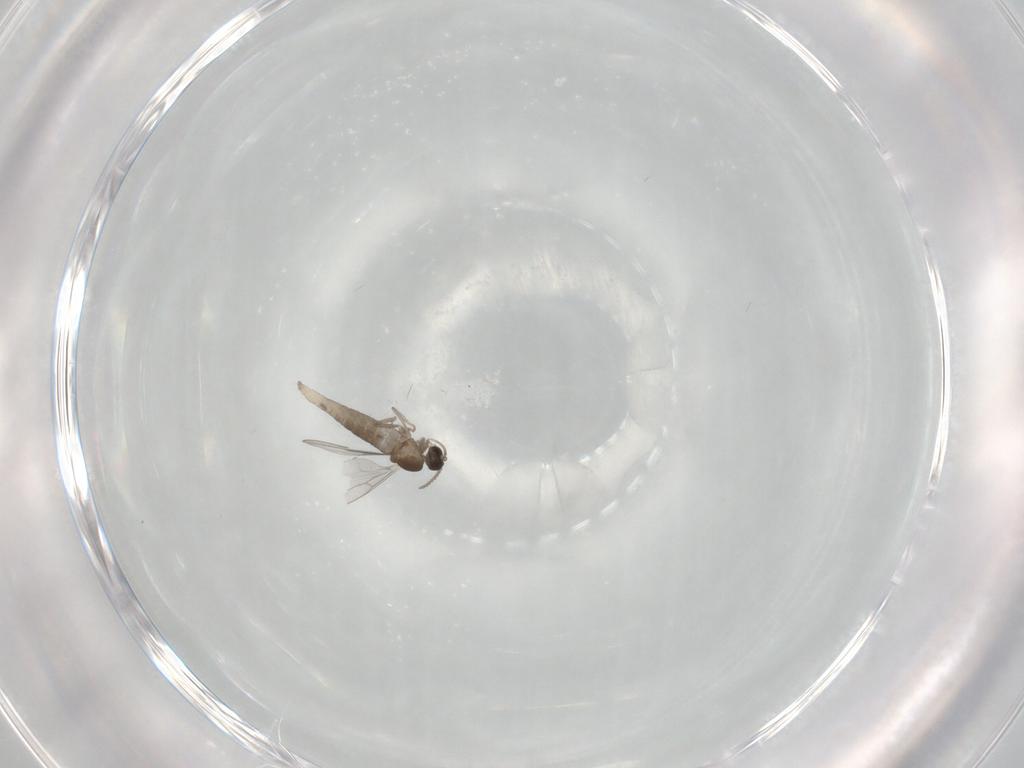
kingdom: Animalia
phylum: Arthropoda
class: Insecta
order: Diptera
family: Cecidomyiidae
